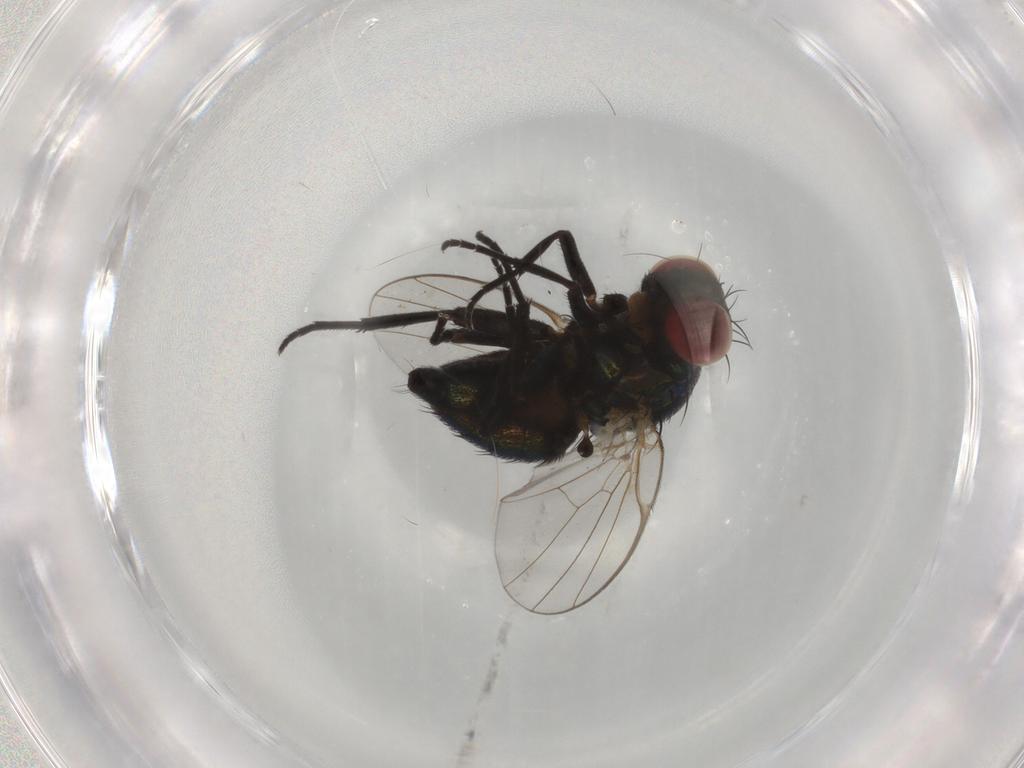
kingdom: Animalia
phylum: Arthropoda
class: Insecta
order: Diptera
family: Agromyzidae
